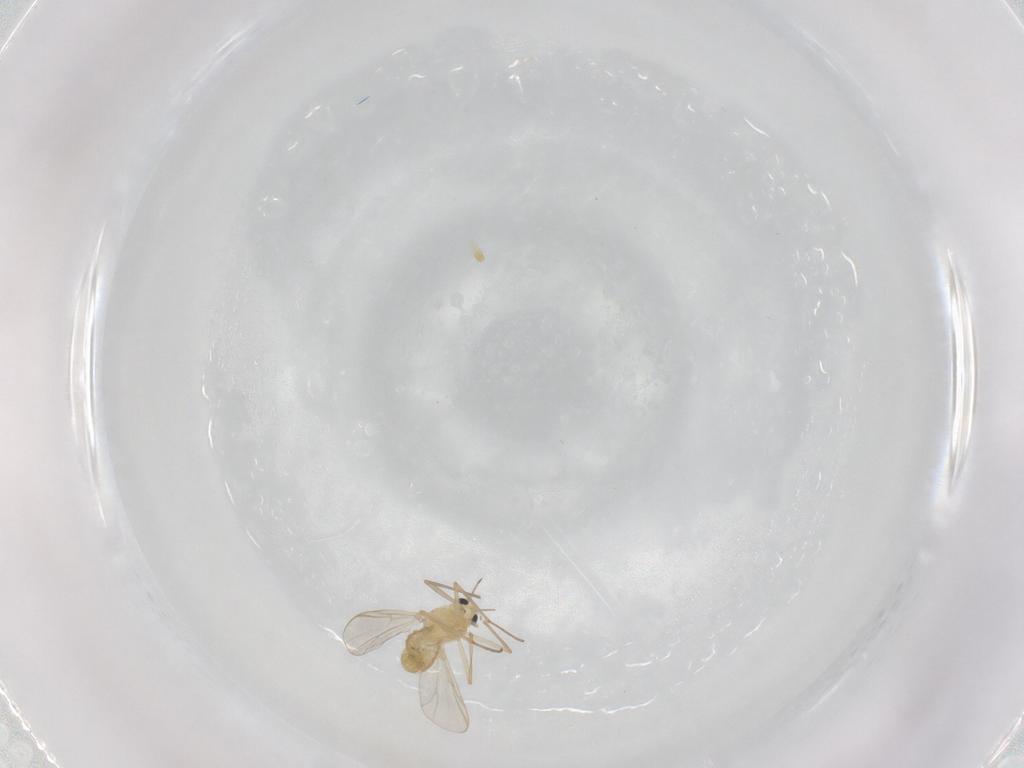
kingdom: Animalia
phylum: Arthropoda
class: Insecta
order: Diptera
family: Chironomidae
